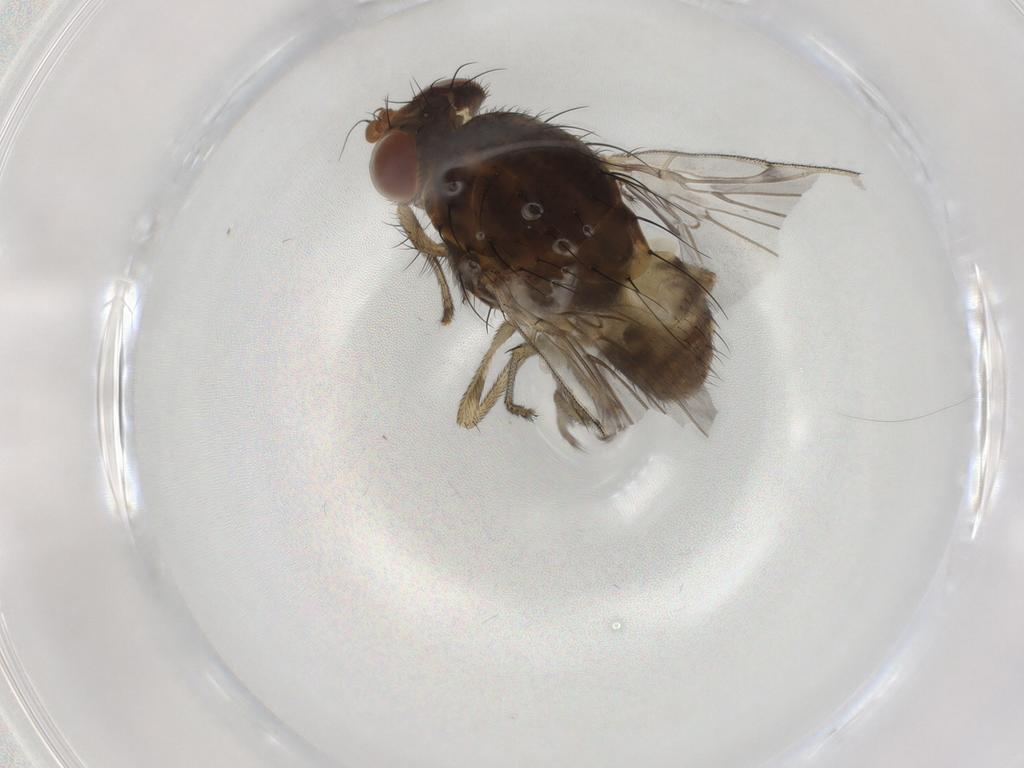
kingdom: Animalia
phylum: Arthropoda
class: Insecta
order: Diptera
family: Lauxaniidae
